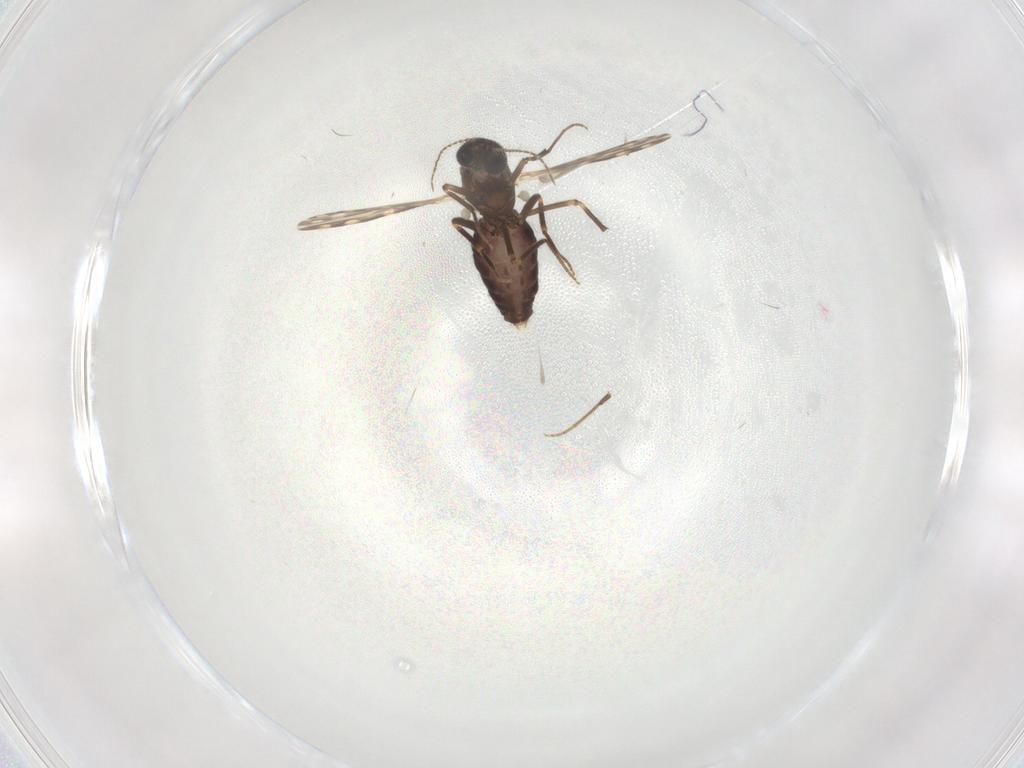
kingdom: Animalia
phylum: Arthropoda
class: Insecta
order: Diptera
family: Ceratopogonidae
